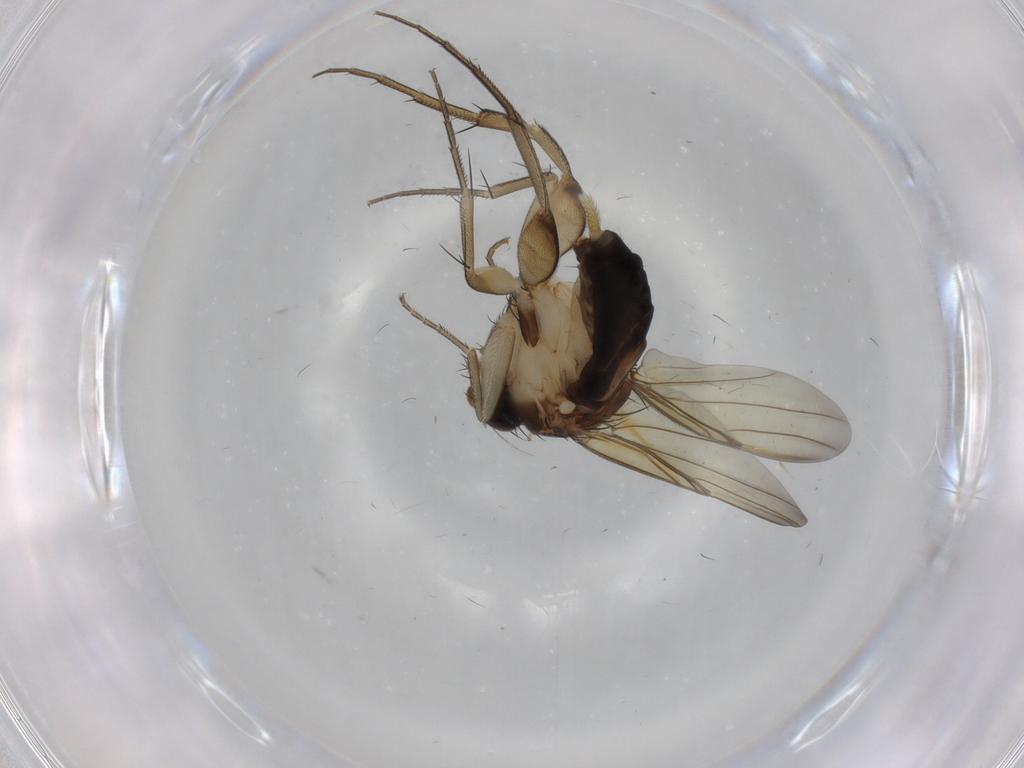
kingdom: Animalia
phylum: Arthropoda
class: Insecta
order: Diptera
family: Phoridae
